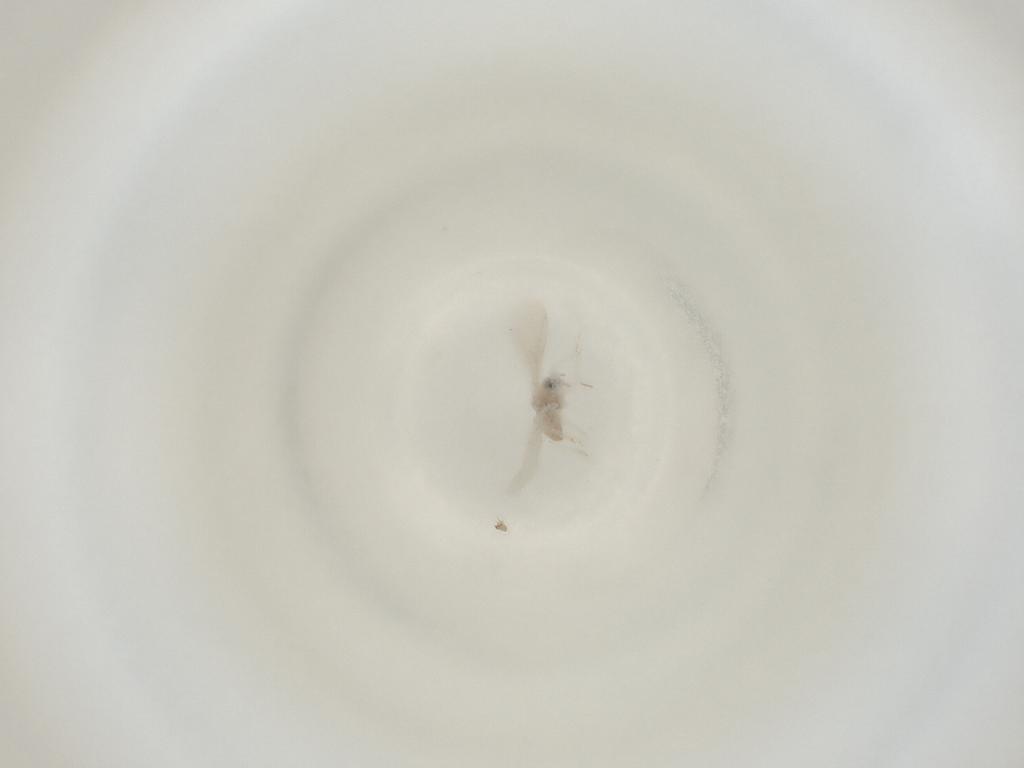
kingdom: Animalia
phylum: Arthropoda
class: Insecta
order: Diptera
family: Cecidomyiidae
